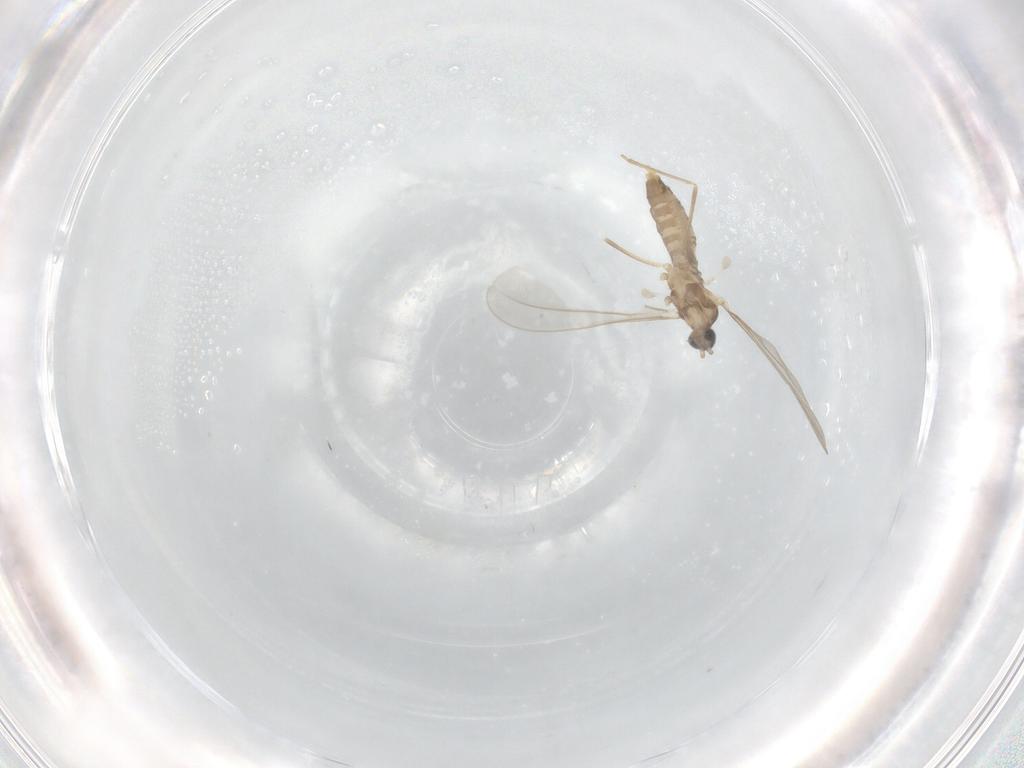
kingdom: Animalia
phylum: Arthropoda
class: Insecta
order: Diptera
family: Cecidomyiidae
